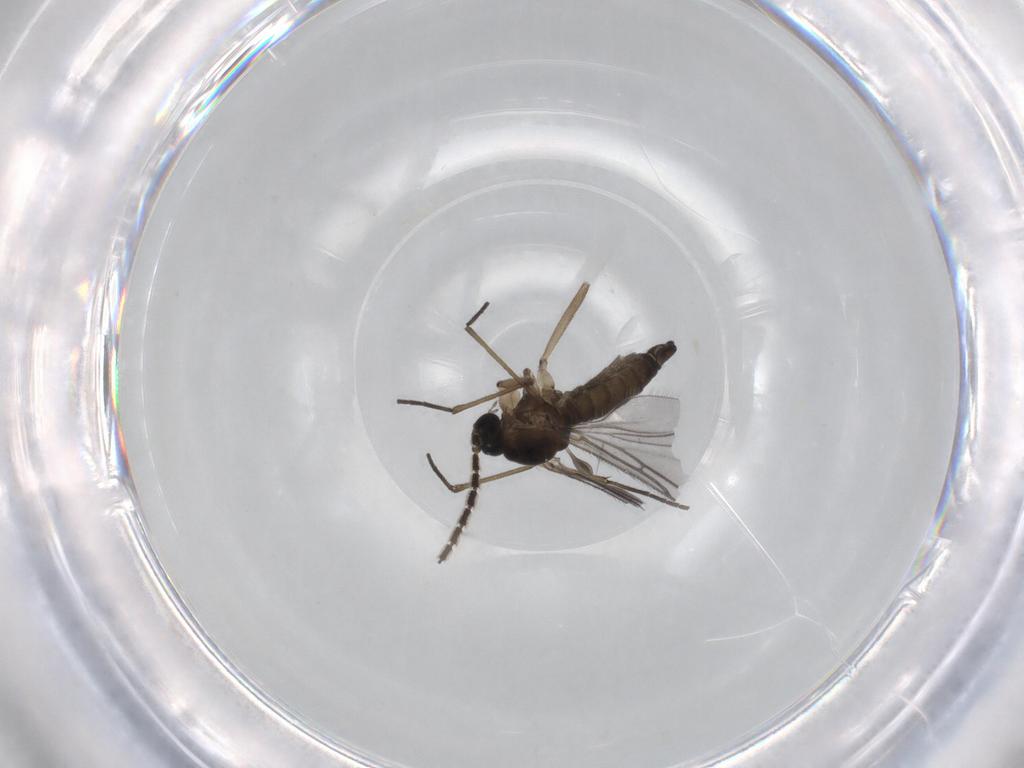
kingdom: Animalia
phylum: Arthropoda
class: Insecta
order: Diptera
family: Sciaridae
